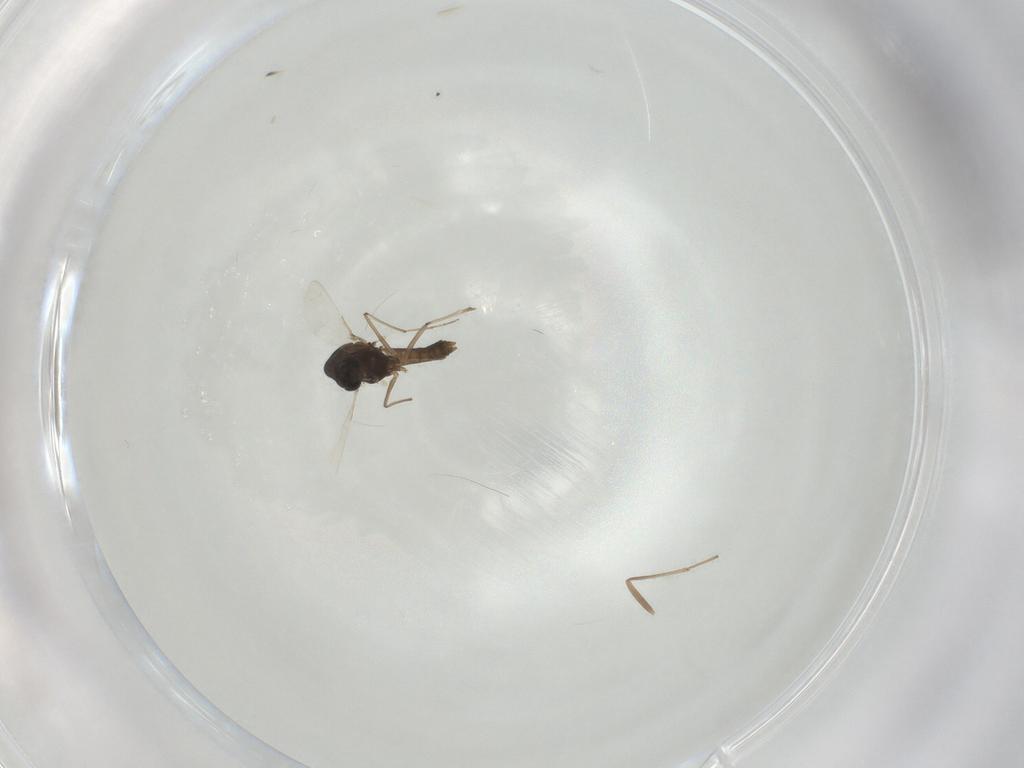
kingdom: Animalia
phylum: Arthropoda
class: Insecta
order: Diptera
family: Chironomidae
